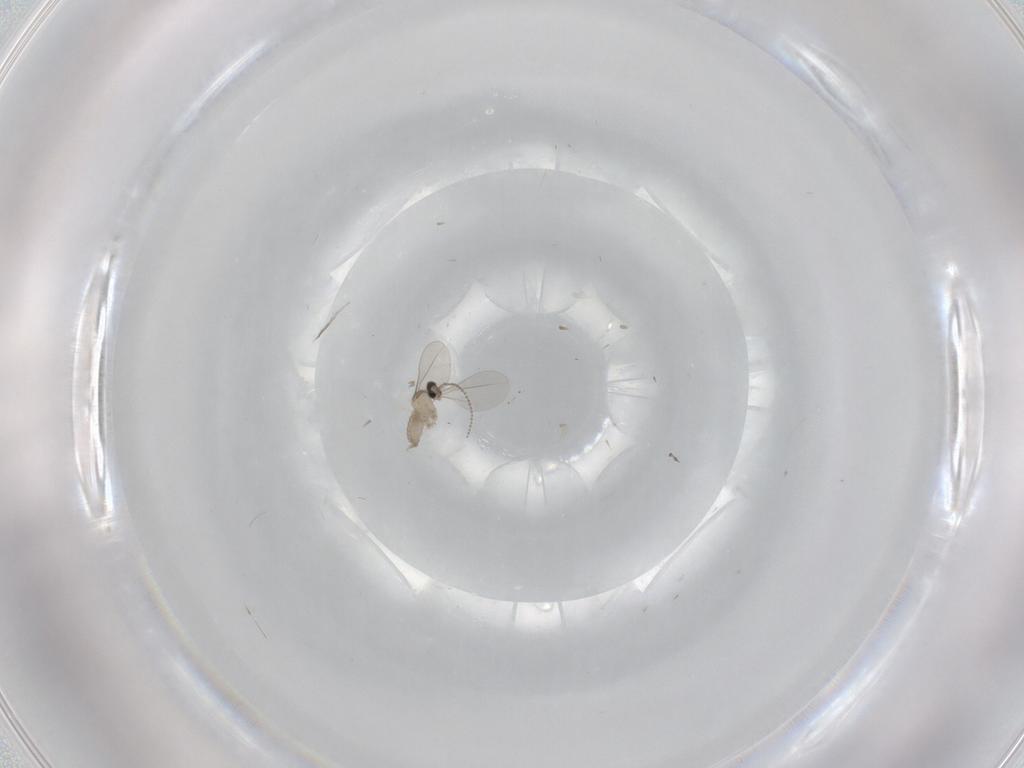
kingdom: Animalia
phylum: Arthropoda
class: Insecta
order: Diptera
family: Cecidomyiidae
